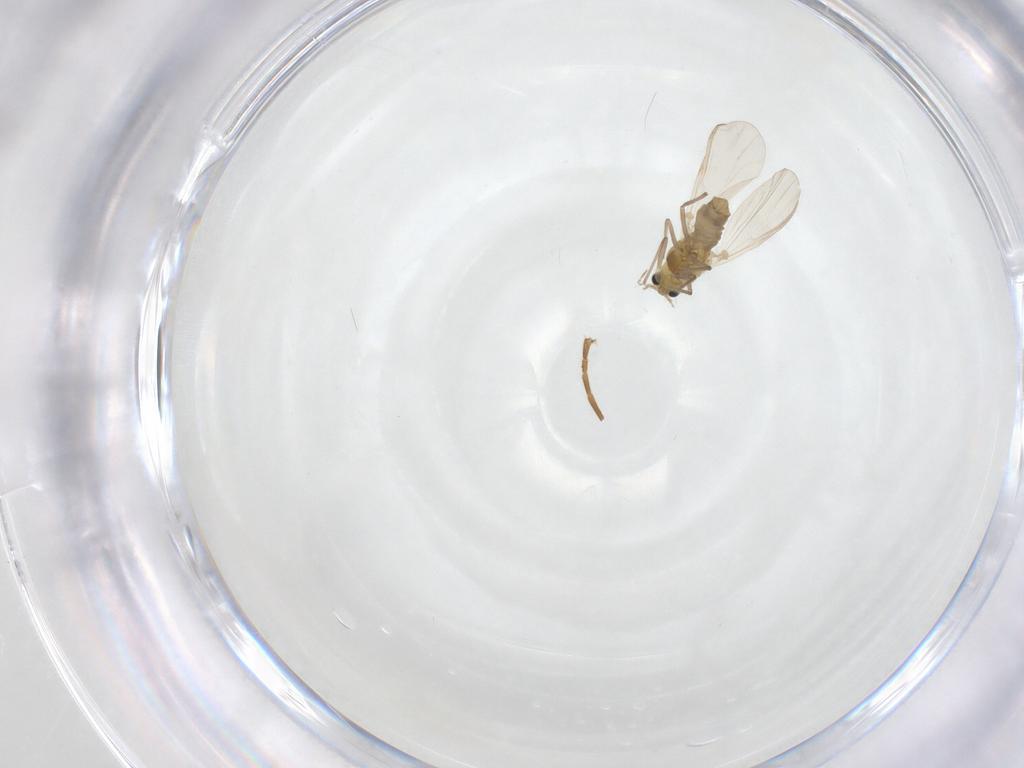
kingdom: Animalia
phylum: Arthropoda
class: Insecta
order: Diptera
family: Chironomidae
